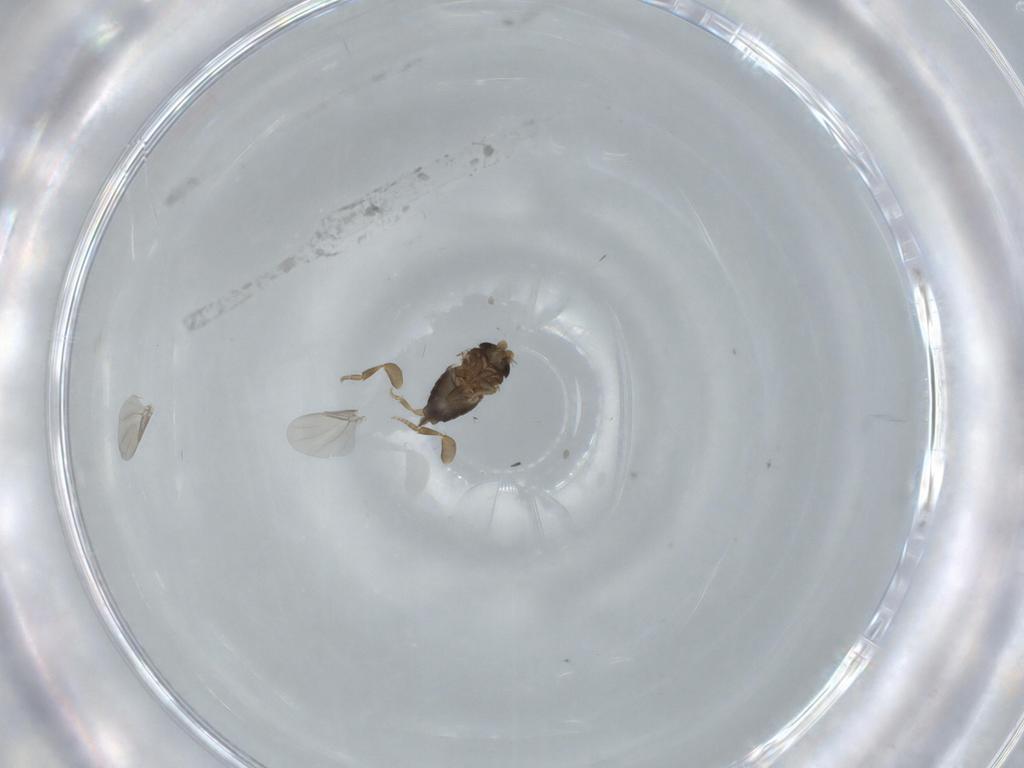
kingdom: Animalia
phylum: Arthropoda
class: Insecta
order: Diptera
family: Phoridae
